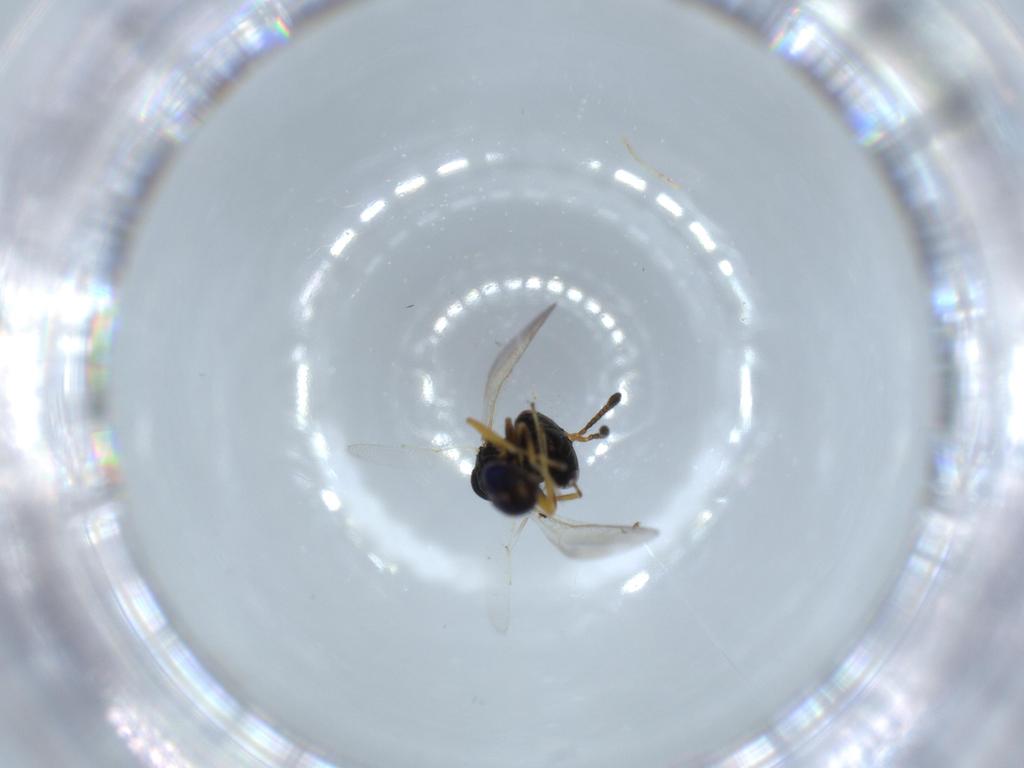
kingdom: Animalia
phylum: Arthropoda
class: Insecta
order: Hymenoptera
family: Pteromalidae
